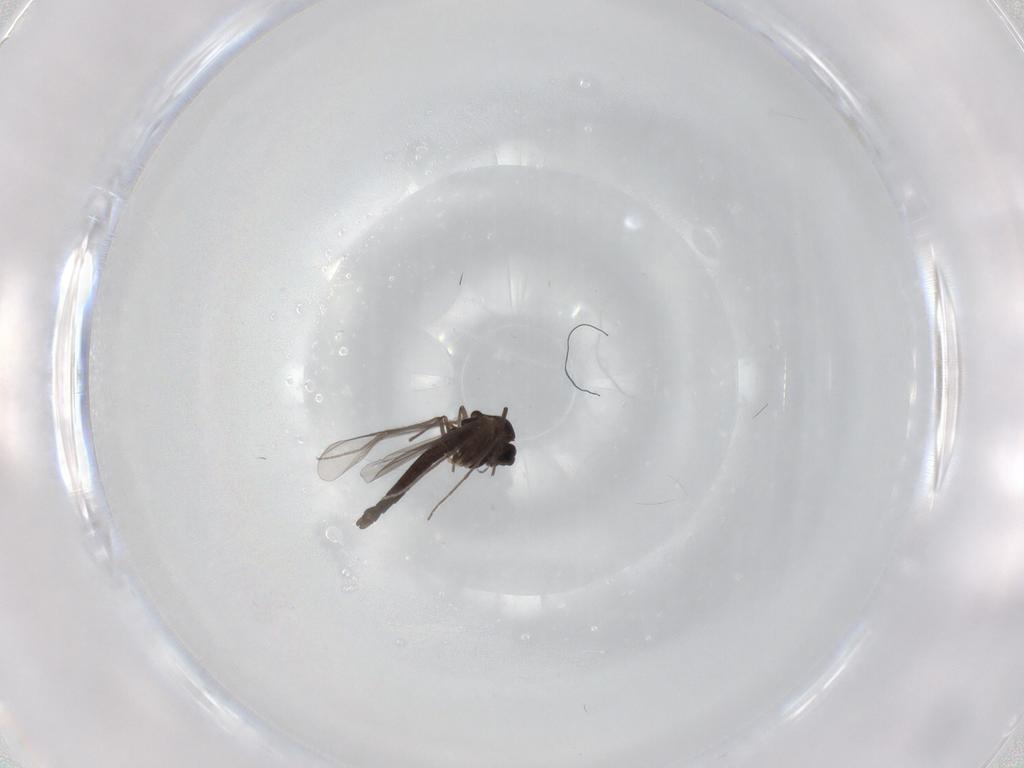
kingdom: Animalia
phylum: Arthropoda
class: Insecta
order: Diptera
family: Chironomidae
